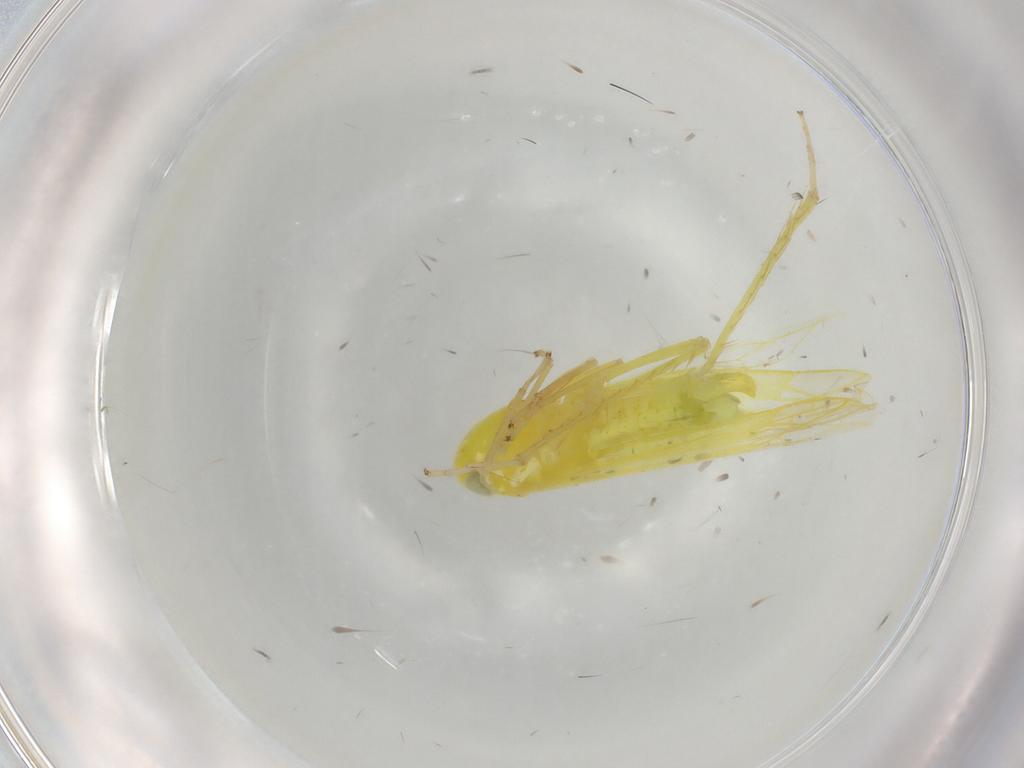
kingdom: Animalia
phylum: Arthropoda
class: Insecta
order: Hemiptera
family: Cicadellidae
